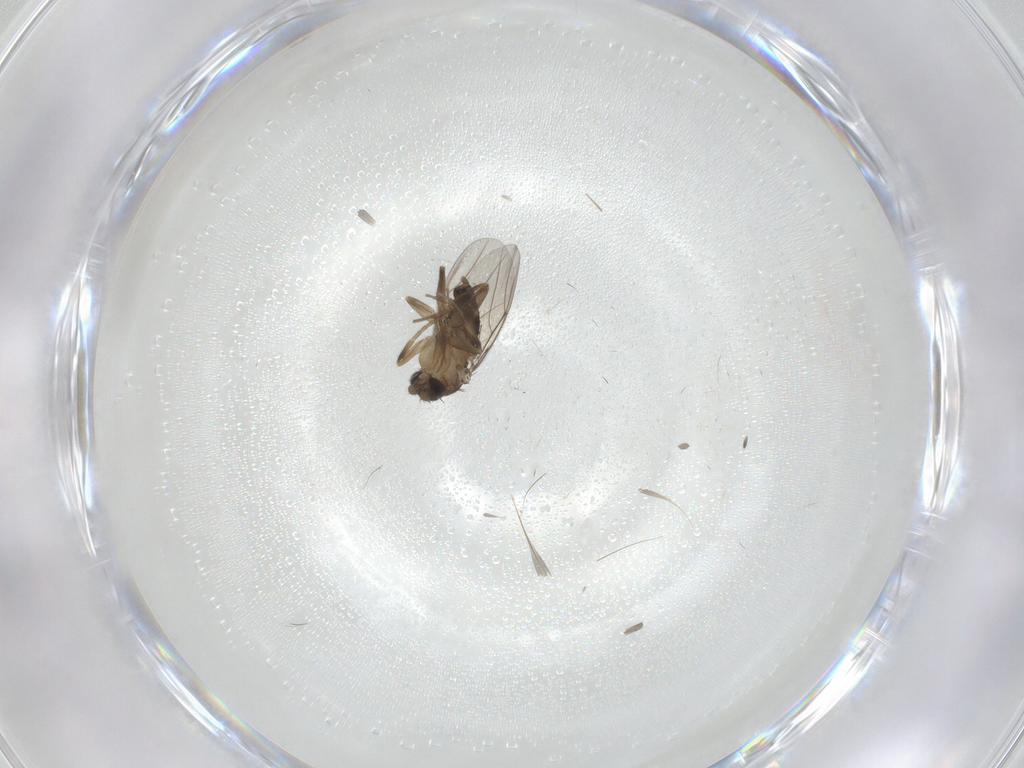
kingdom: Animalia
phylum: Arthropoda
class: Insecta
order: Diptera
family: Phoridae
